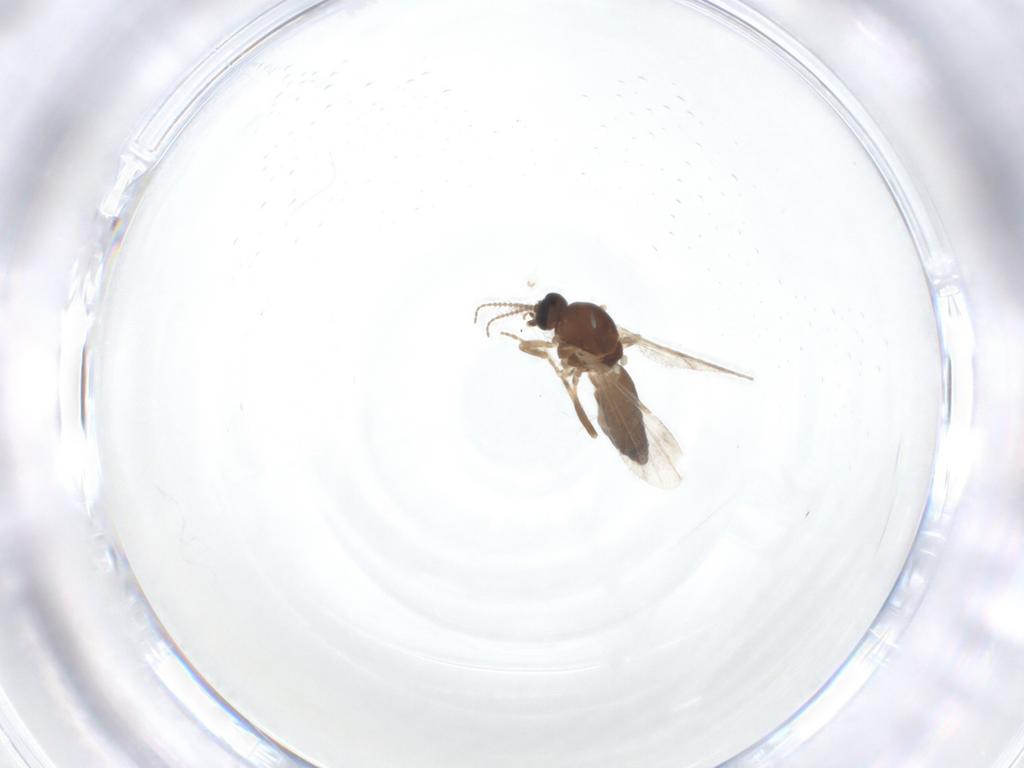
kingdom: Animalia
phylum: Arthropoda
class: Insecta
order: Diptera
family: Ceratopogonidae
